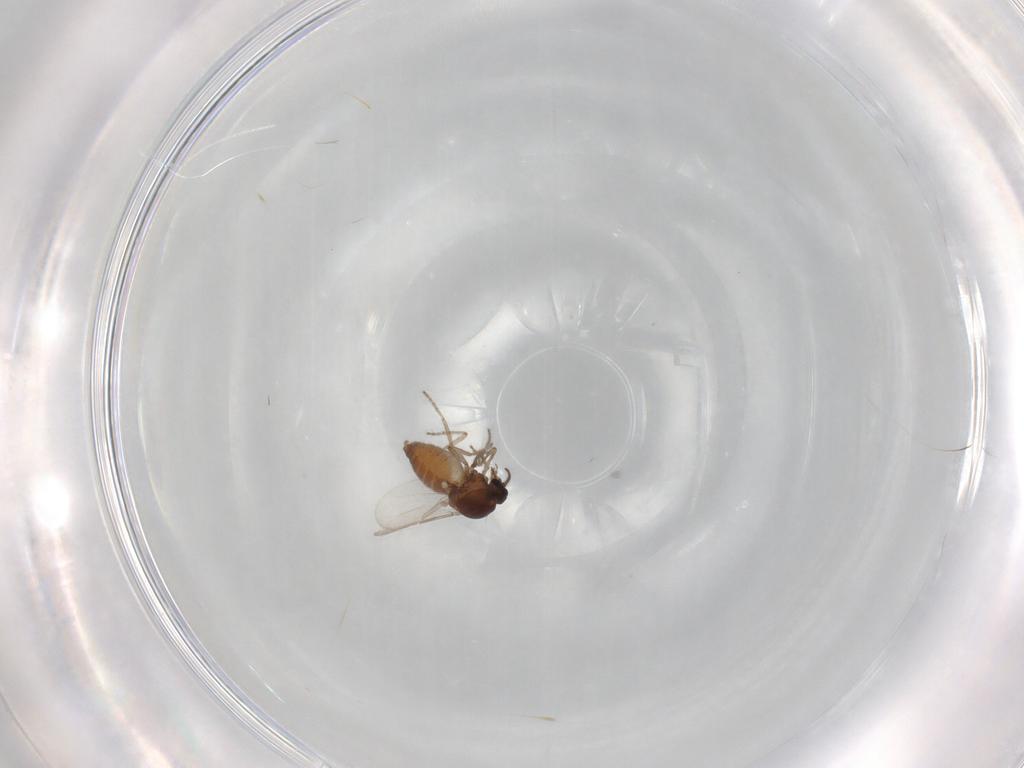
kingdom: Animalia
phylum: Arthropoda
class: Insecta
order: Diptera
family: Ceratopogonidae
